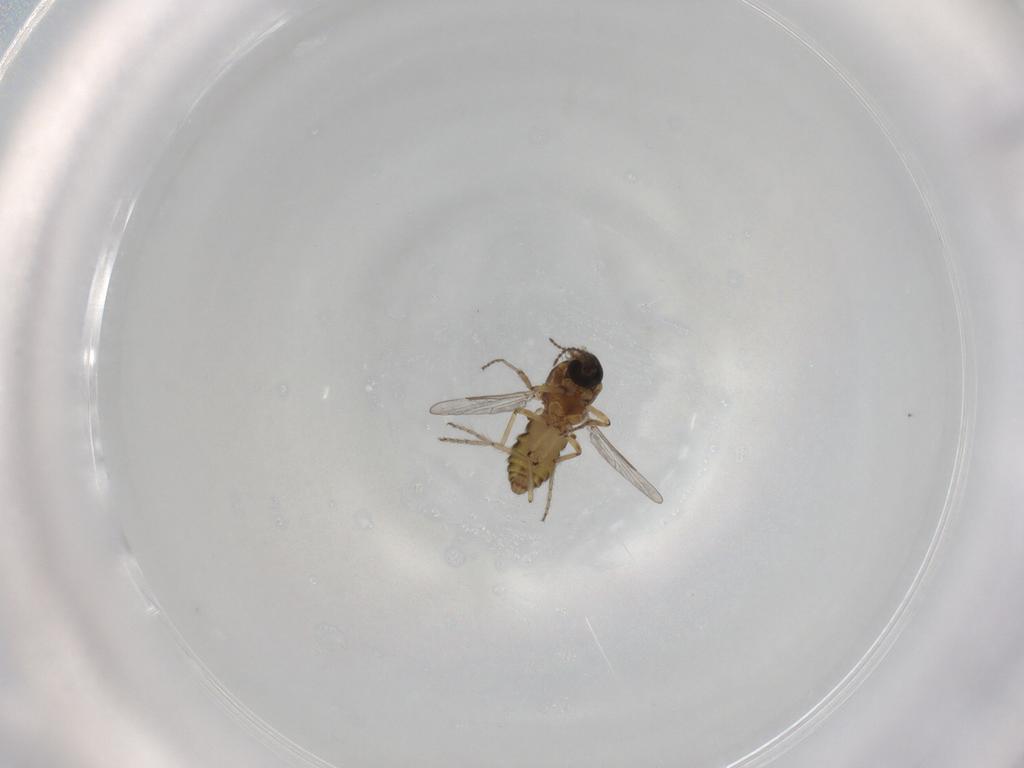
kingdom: Animalia
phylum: Arthropoda
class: Insecta
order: Diptera
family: Ceratopogonidae
